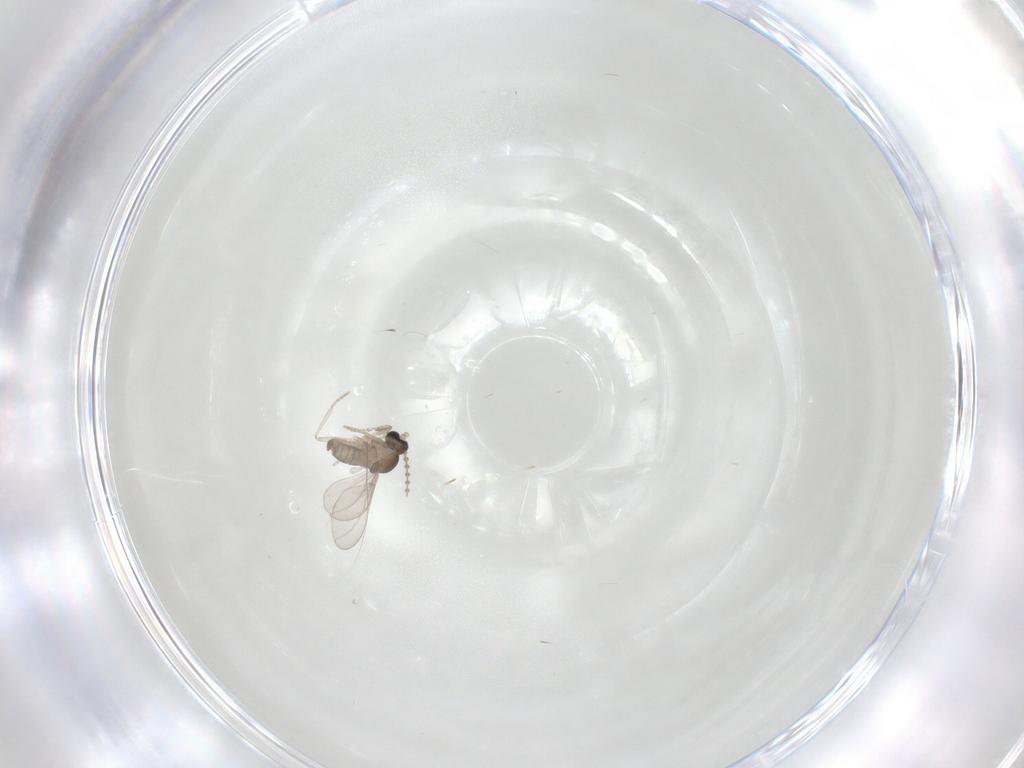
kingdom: Animalia
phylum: Arthropoda
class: Insecta
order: Diptera
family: Cecidomyiidae
